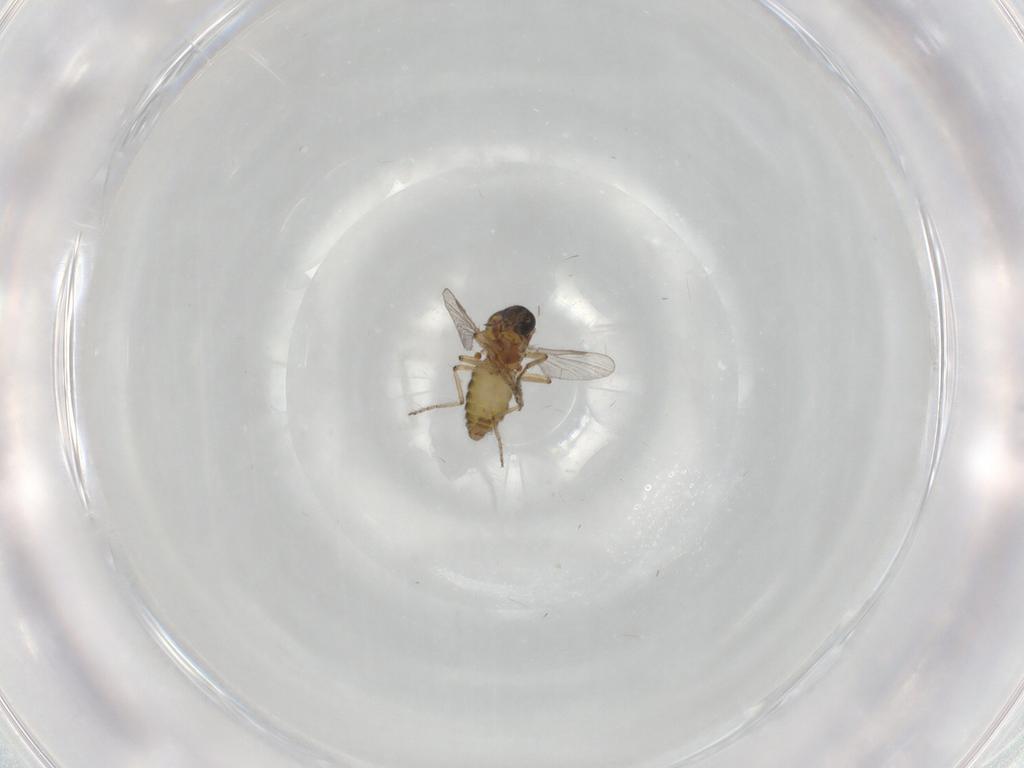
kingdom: Animalia
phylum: Arthropoda
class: Insecta
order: Diptera
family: Ceratopogonidae
